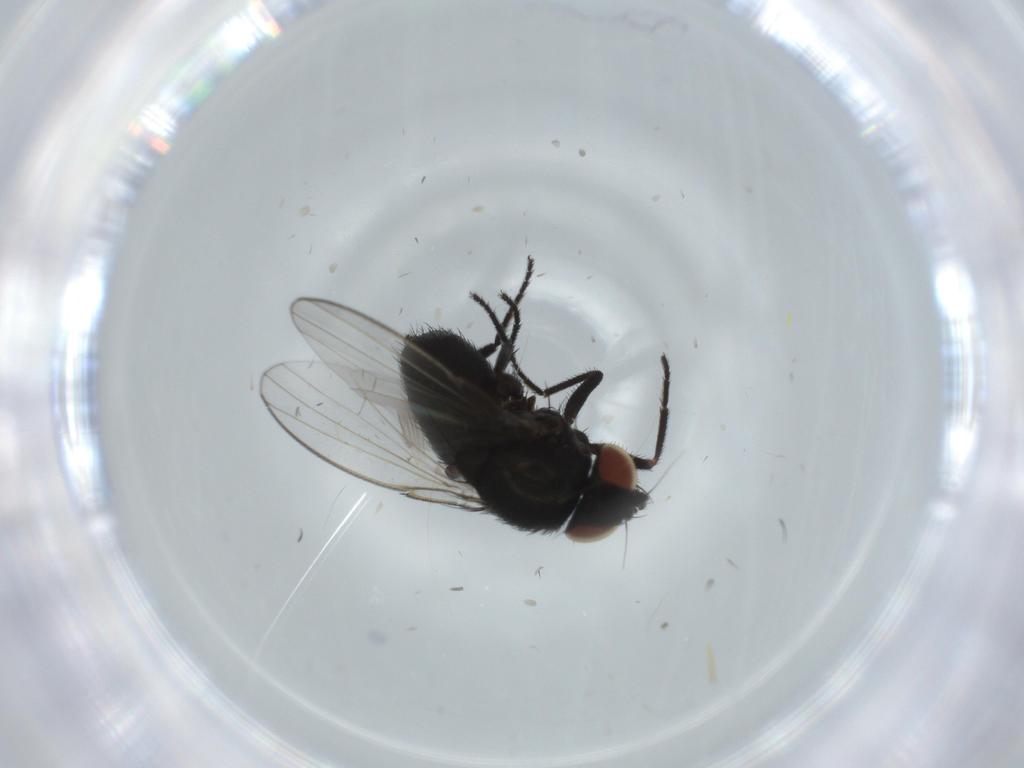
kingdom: Animalia
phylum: Arthropoda
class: Insecta
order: Diptera
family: Milichiidae
